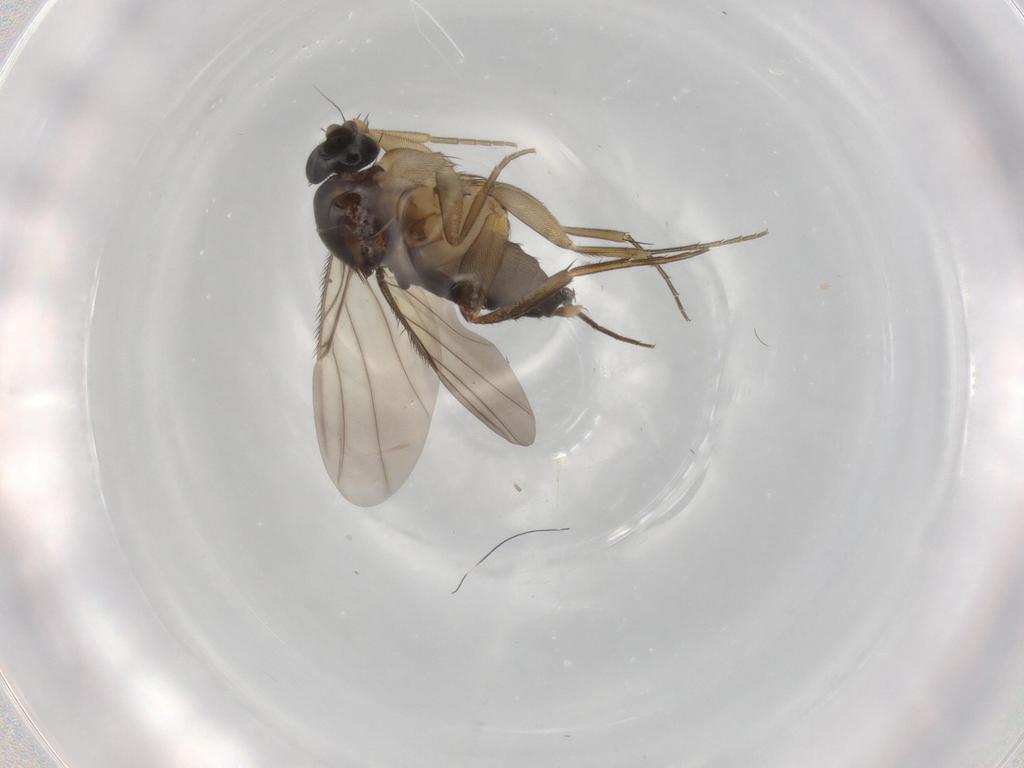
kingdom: Animalia
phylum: Arthropoda
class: Insecta
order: Diptera
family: Phoridae
